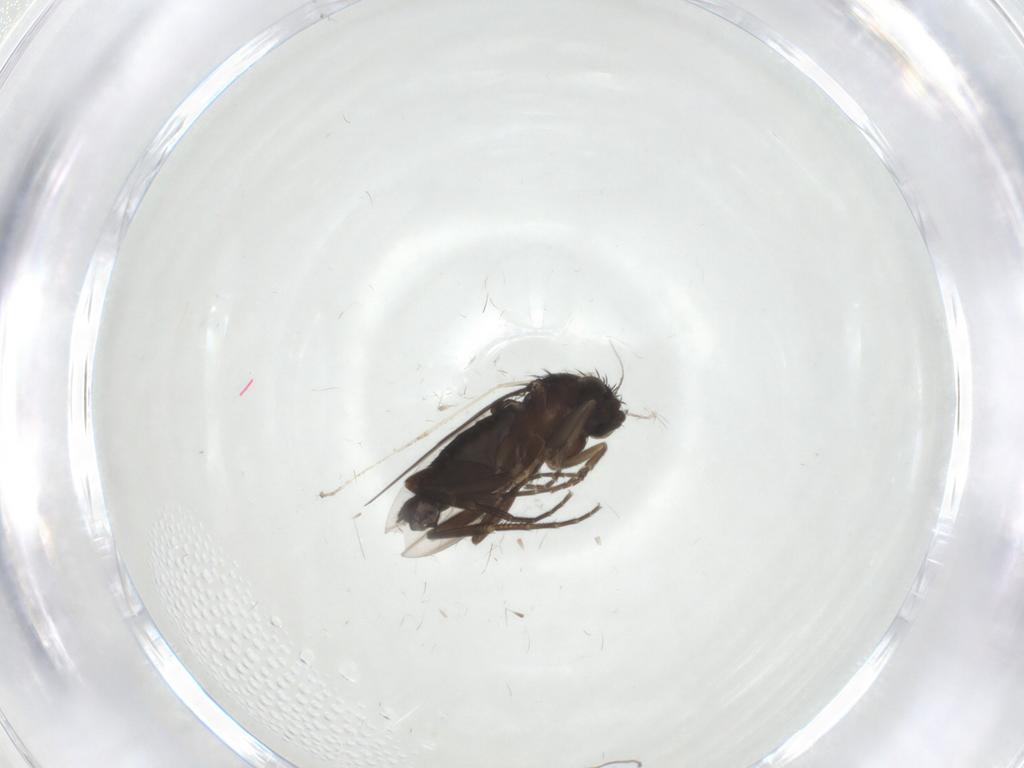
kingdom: Animalia
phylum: Arthropoda
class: Insecta
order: Diptera
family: Phoridae
